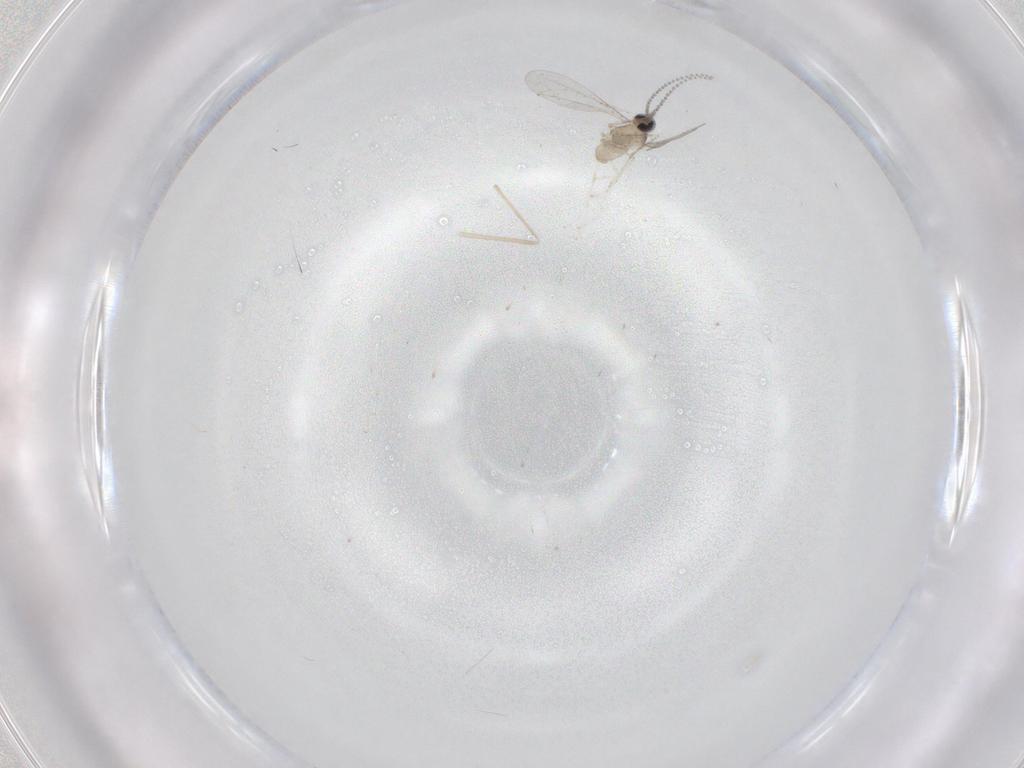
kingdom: Animalia
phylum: Arthropoda
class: Insecta
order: Diptera
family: Cecidomyiidae
